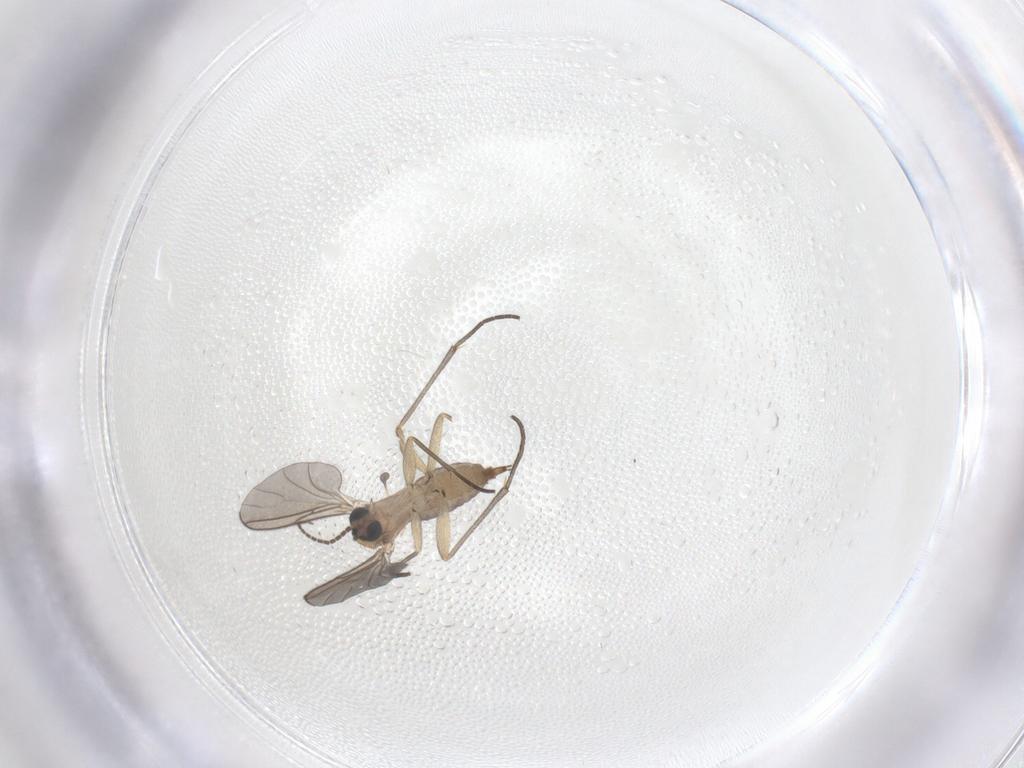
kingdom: Animalia
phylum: Arthropoda
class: Insecta
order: Diptera
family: Sciaridae
